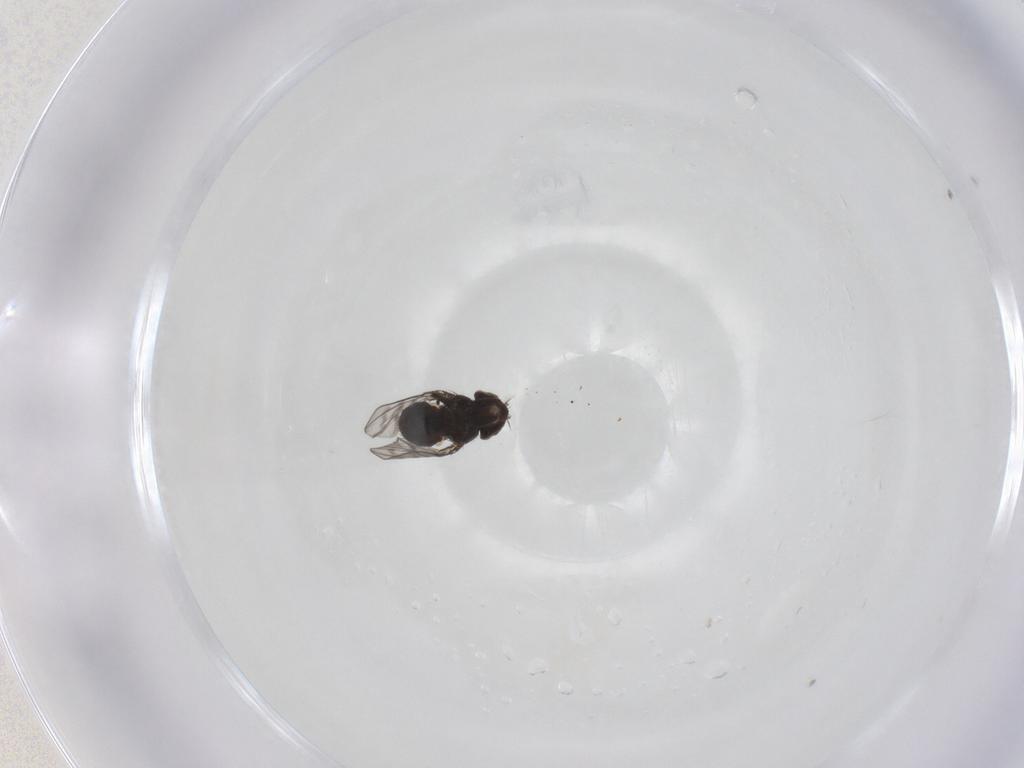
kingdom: Animalia
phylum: Arthropoda
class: Insecta
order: Diptera
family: Ephydridae
